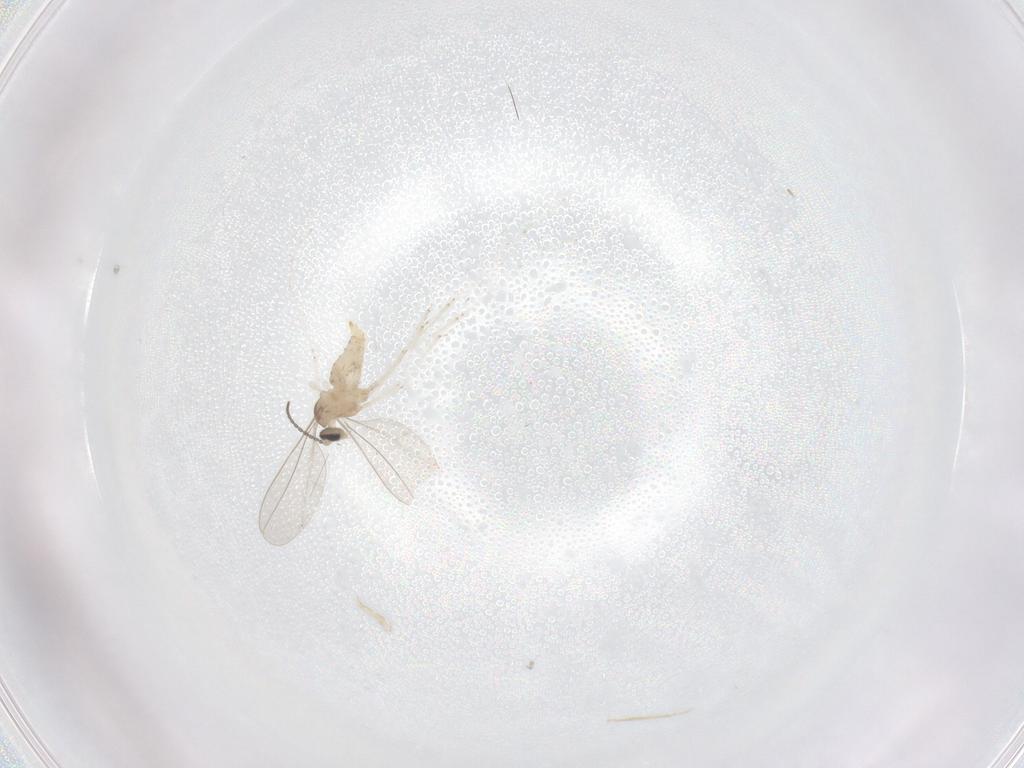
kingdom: Animalia
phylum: Arthropoda
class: Insecta
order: Diptera
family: Cecidomyiidae
